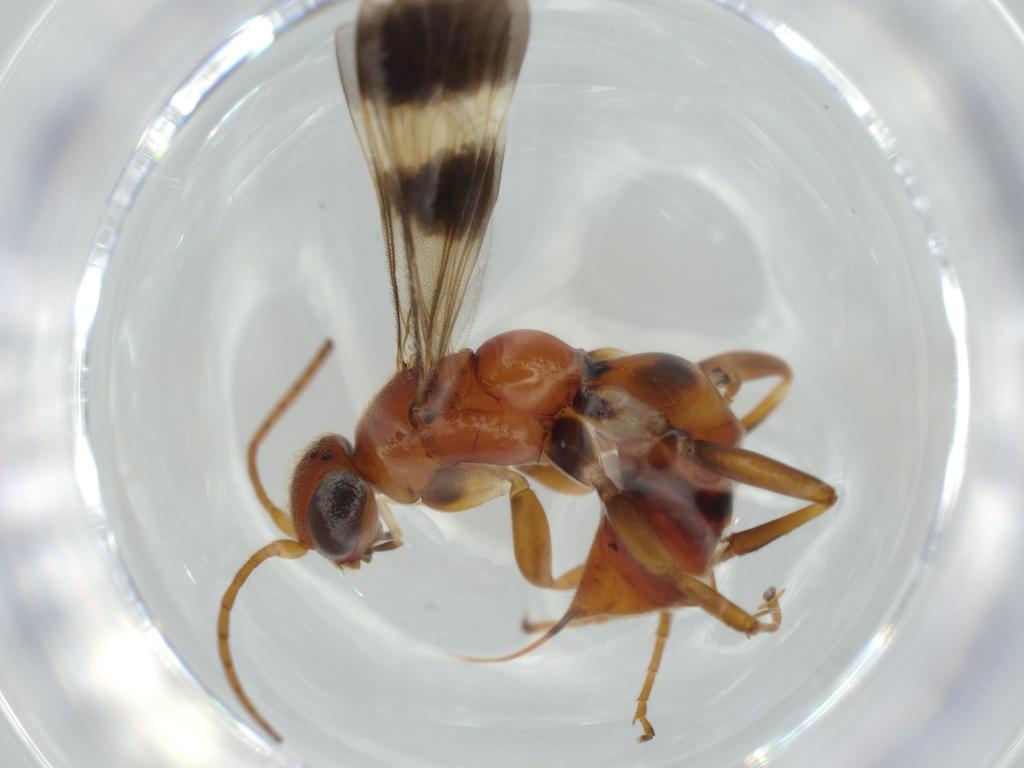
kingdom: Animalia
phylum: Arthropoda
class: Insecta
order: Hymenoptera
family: Pompilidae
